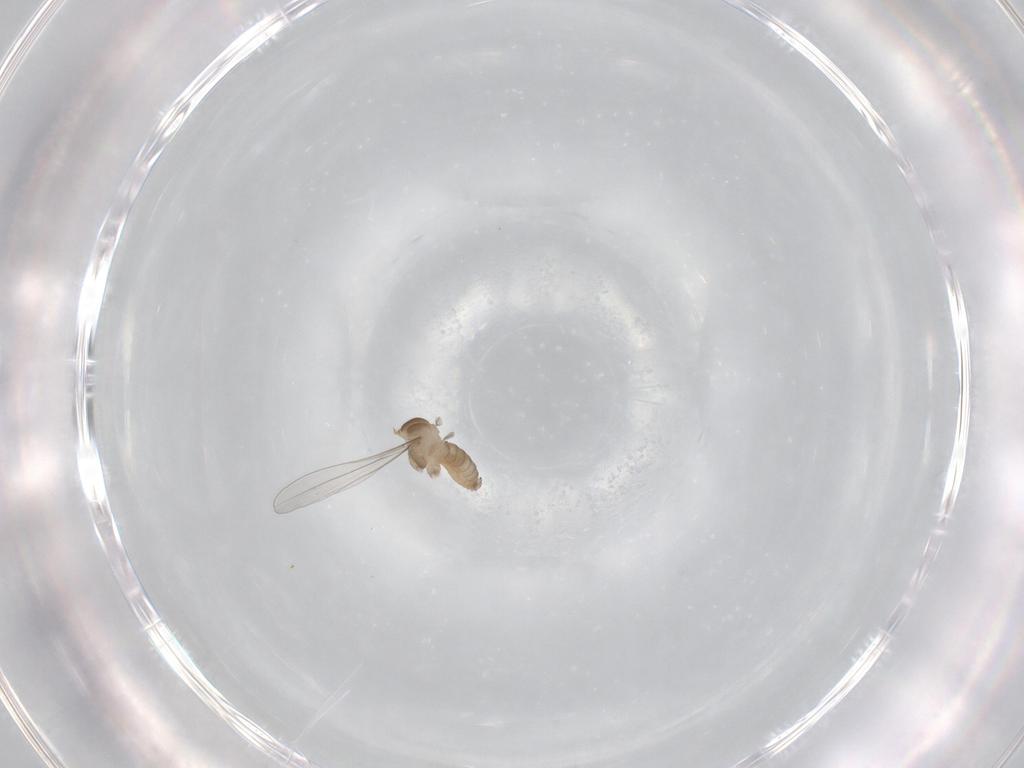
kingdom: Animalia
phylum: Arthropoda
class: Insecta
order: Diptera
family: Cecidomyiidae
